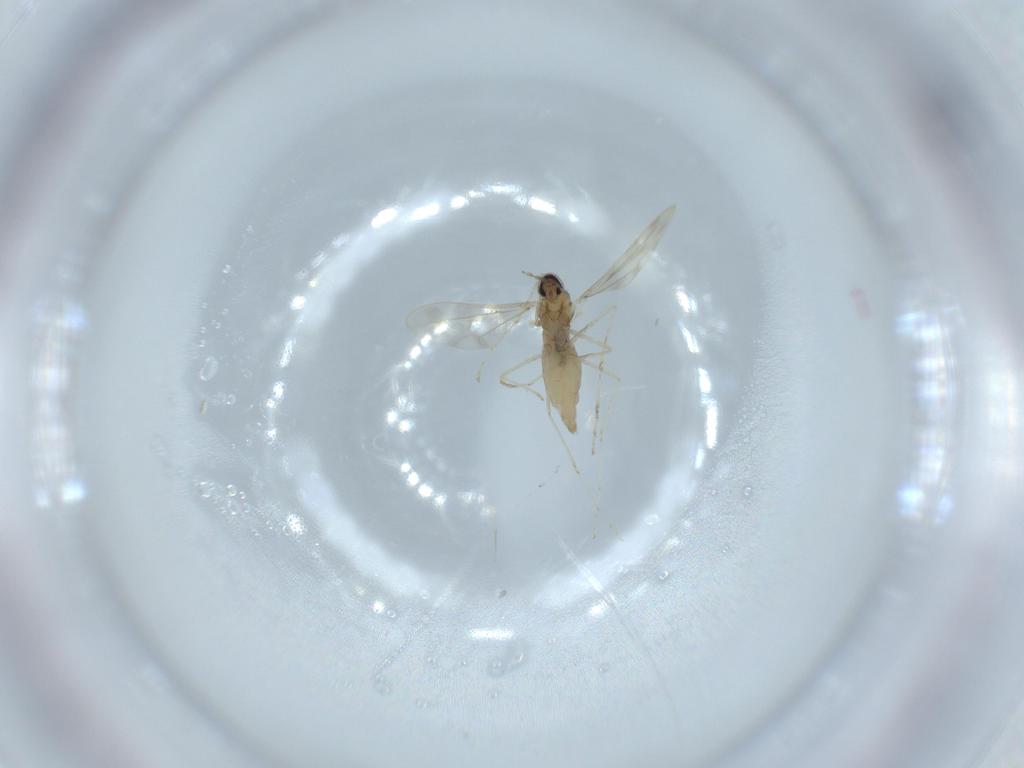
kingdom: Animalia
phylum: Arthropoda
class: Insecta
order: Diptera
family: Cecidomyiidae
